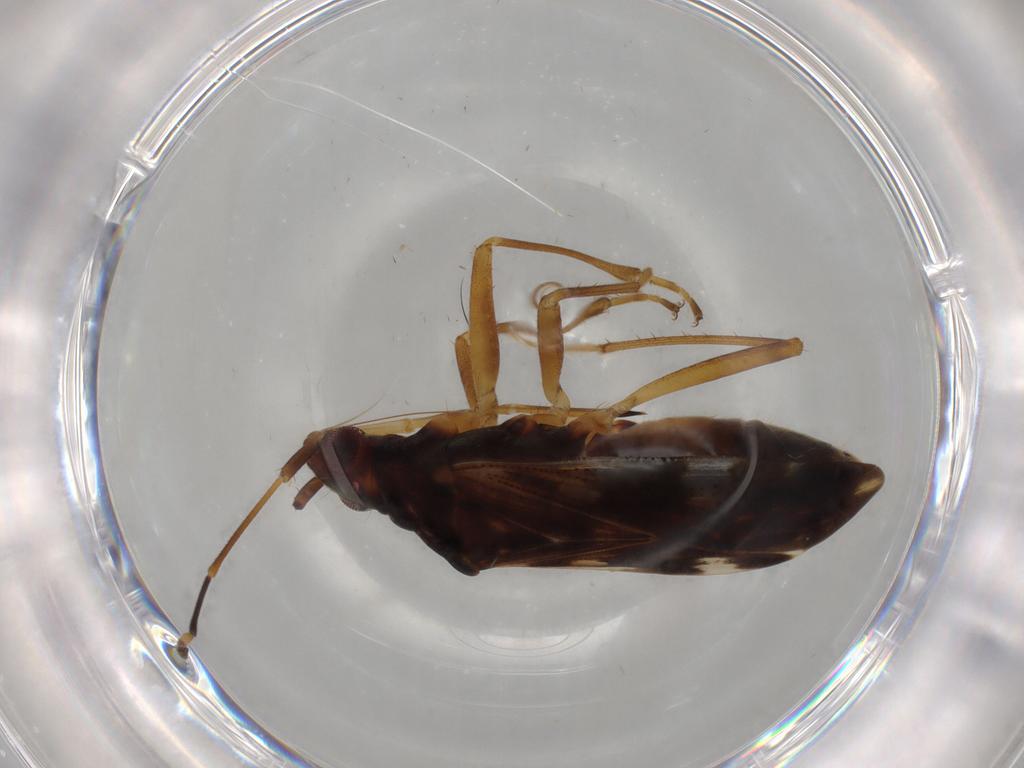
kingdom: Animalia
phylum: Arthropoda
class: Insecta
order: Hemiptera
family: Rhyparochromidae
